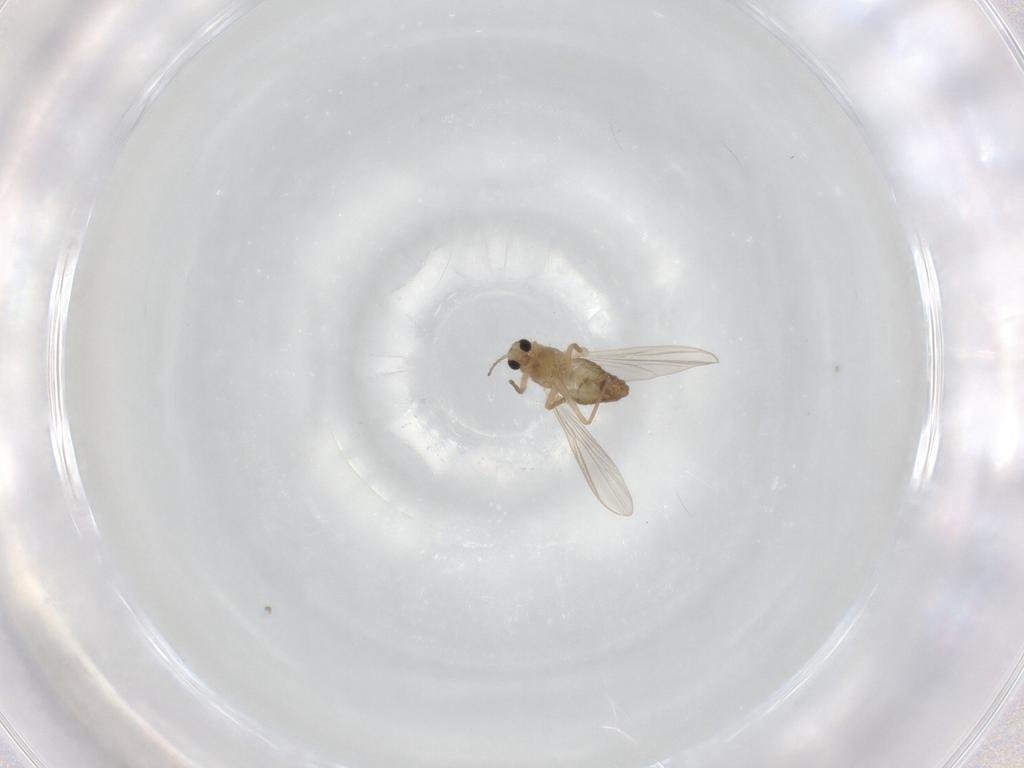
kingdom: Animalia
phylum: Arthropoda
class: Insecta
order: Diptera
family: Chironomidae
